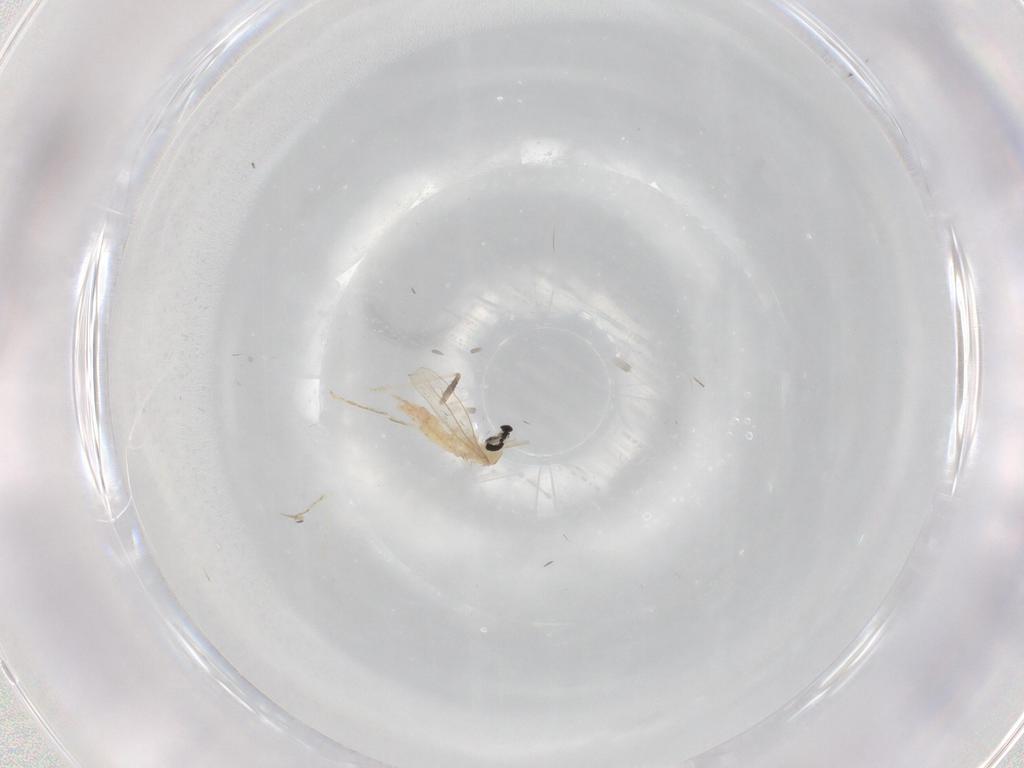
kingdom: Animalia
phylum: Arthropoda
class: Insecta
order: Diptera
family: Cecidomyiidae
